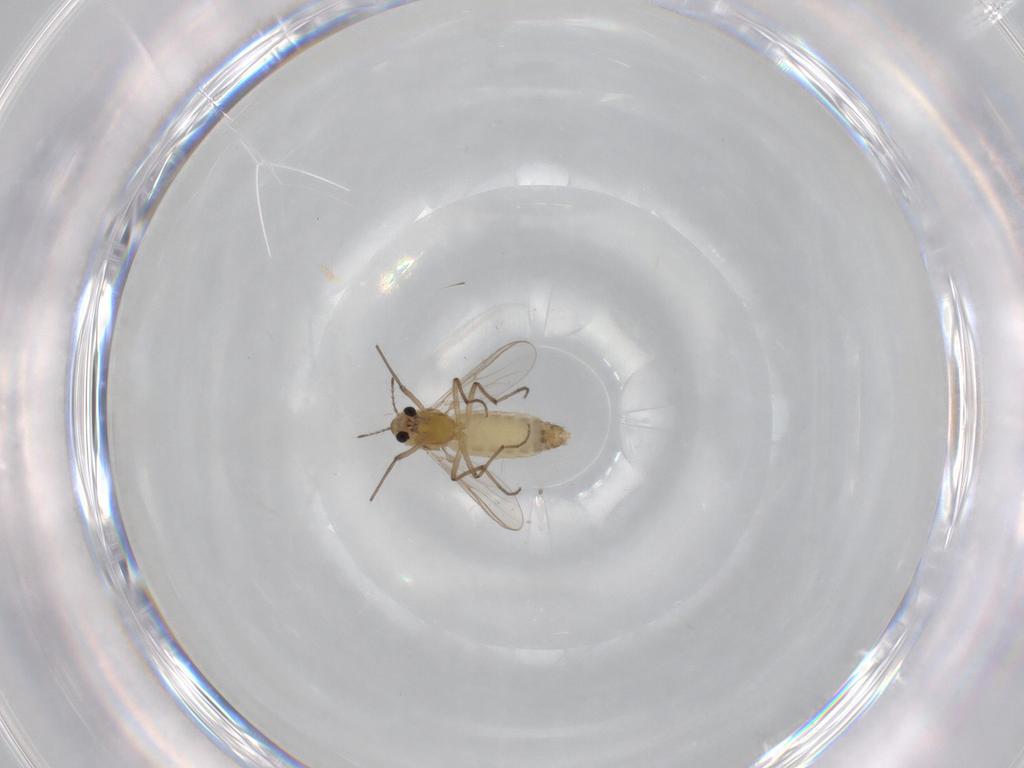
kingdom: Animalia
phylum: Arthropoda
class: Insecta
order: Diptera
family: Chironomidae
